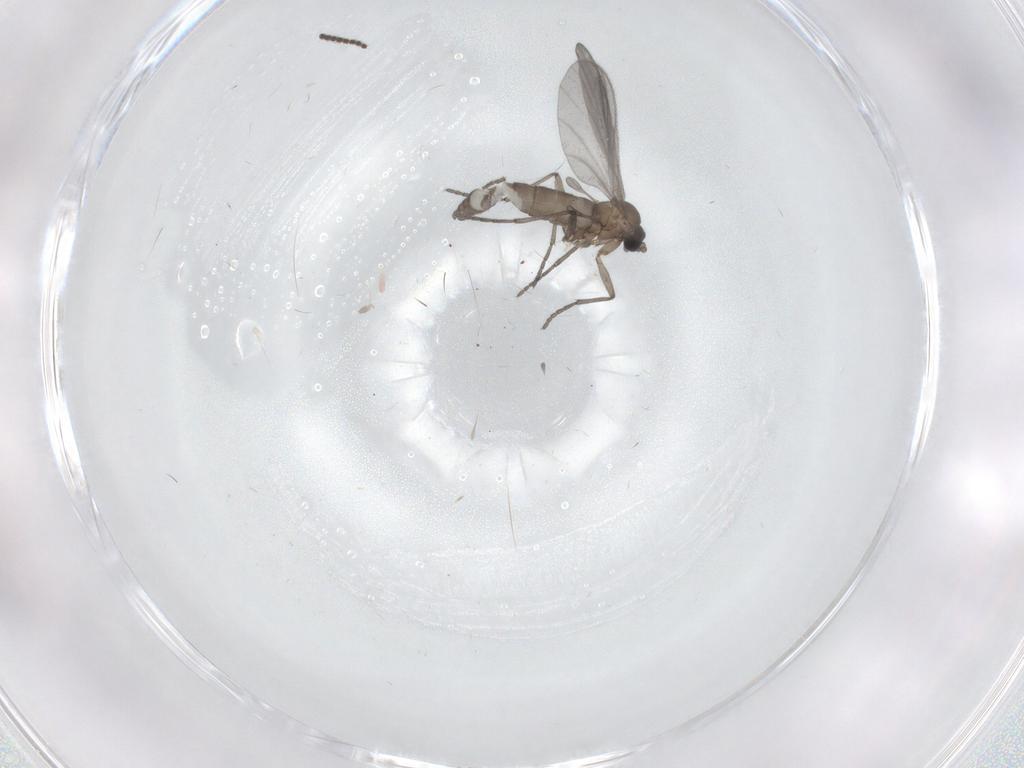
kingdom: Animalia
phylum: Arthropoda
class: Insecta
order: Diptera
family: Sciaridae
